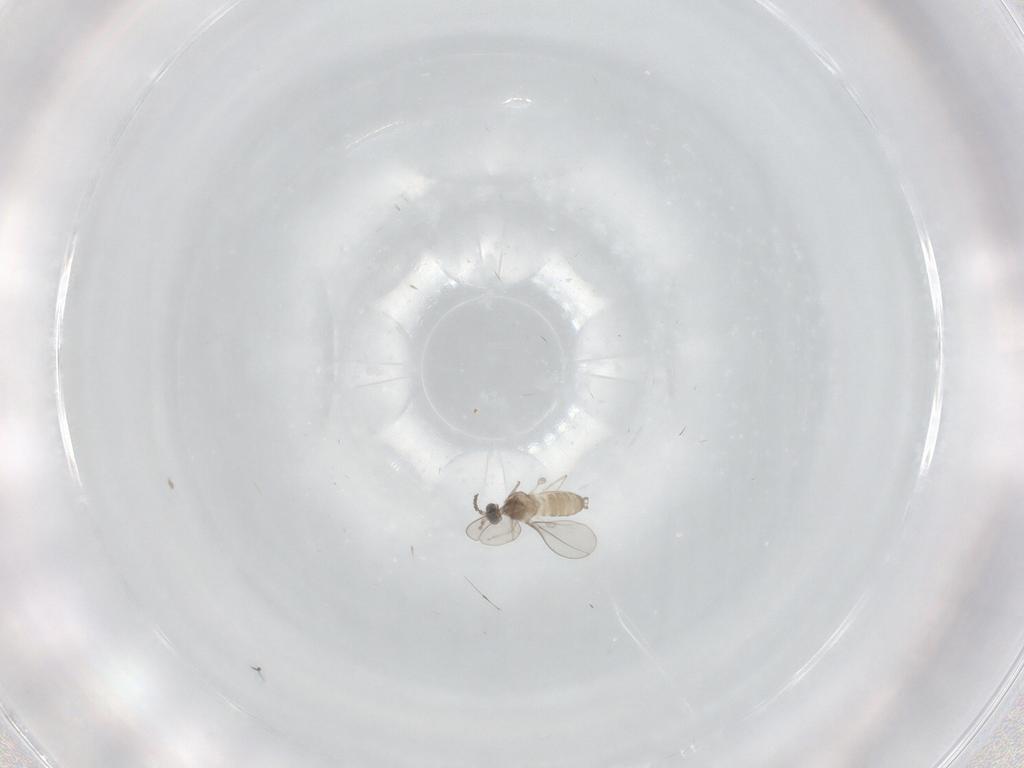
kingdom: Animalia
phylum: Arthropoda
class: Insecta
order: Diptera
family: Cecidomyiidae
